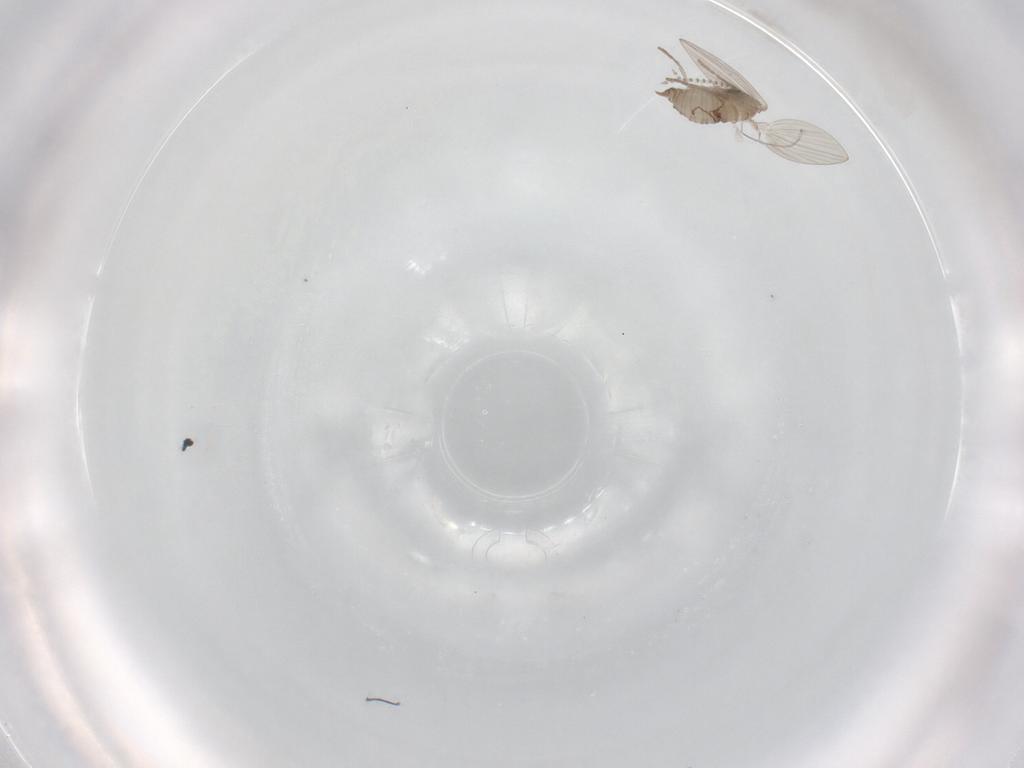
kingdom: Animalia
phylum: Arthropoda
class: Insecta
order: Diptera
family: Psychodidae
